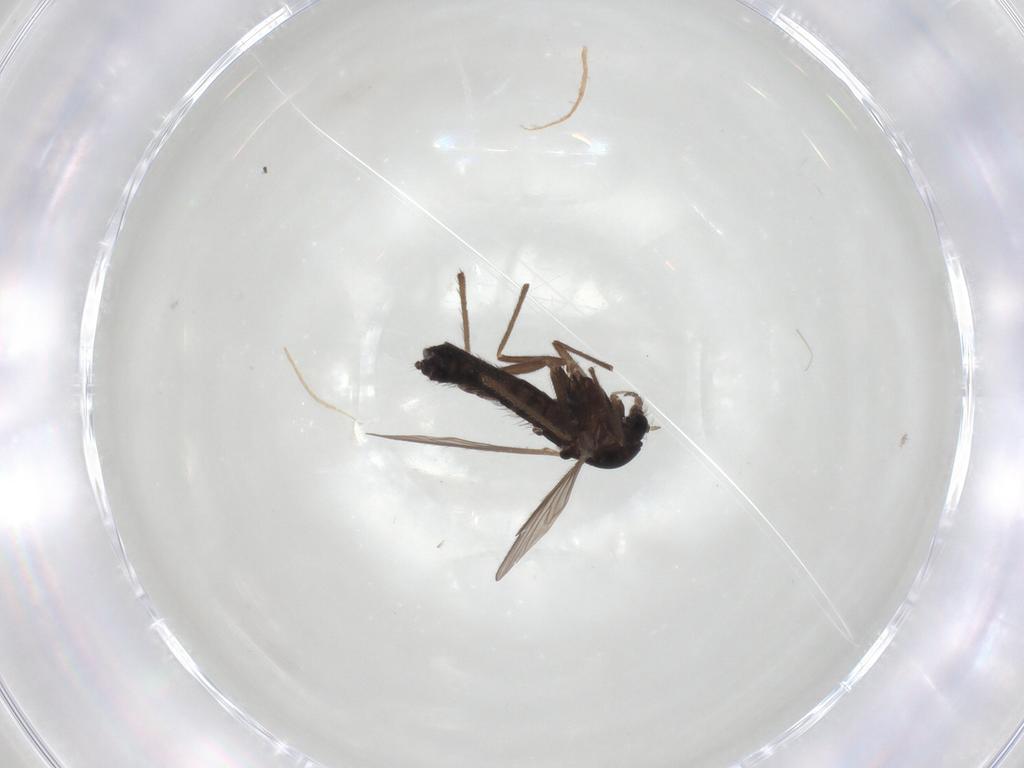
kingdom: Animalia
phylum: Arthropoda
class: Insecta
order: Diptera
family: Chironomidae
